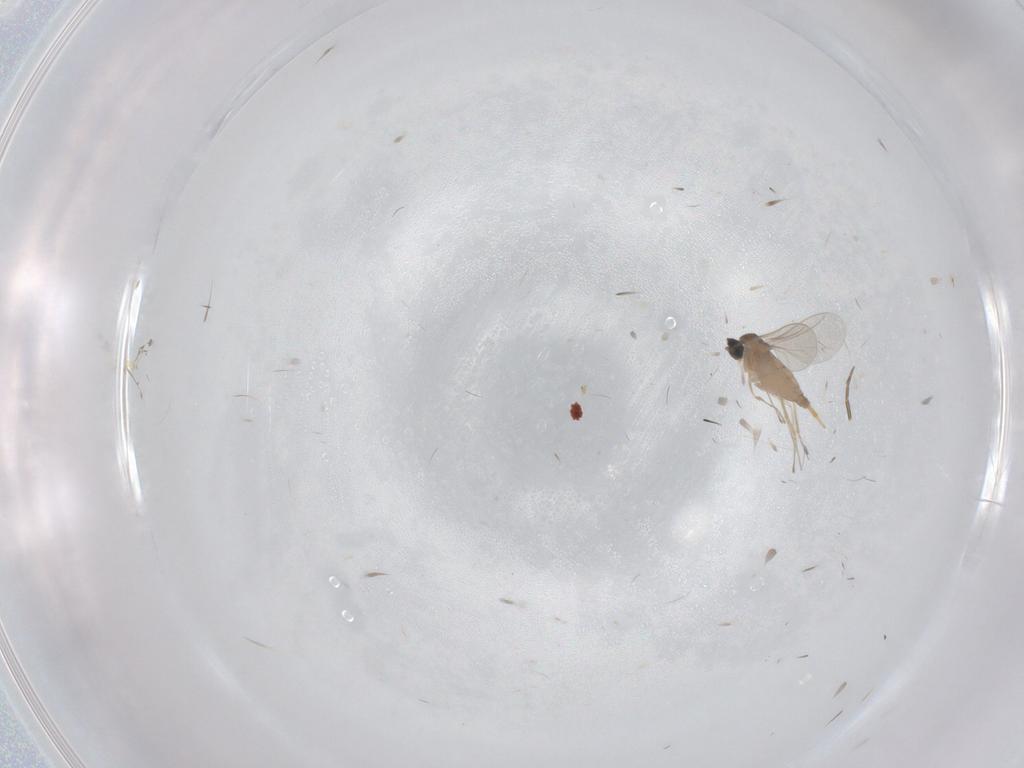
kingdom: Animalia
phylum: Arthropoda
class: Insecta
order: Diptera
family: Cecidomyiidae
